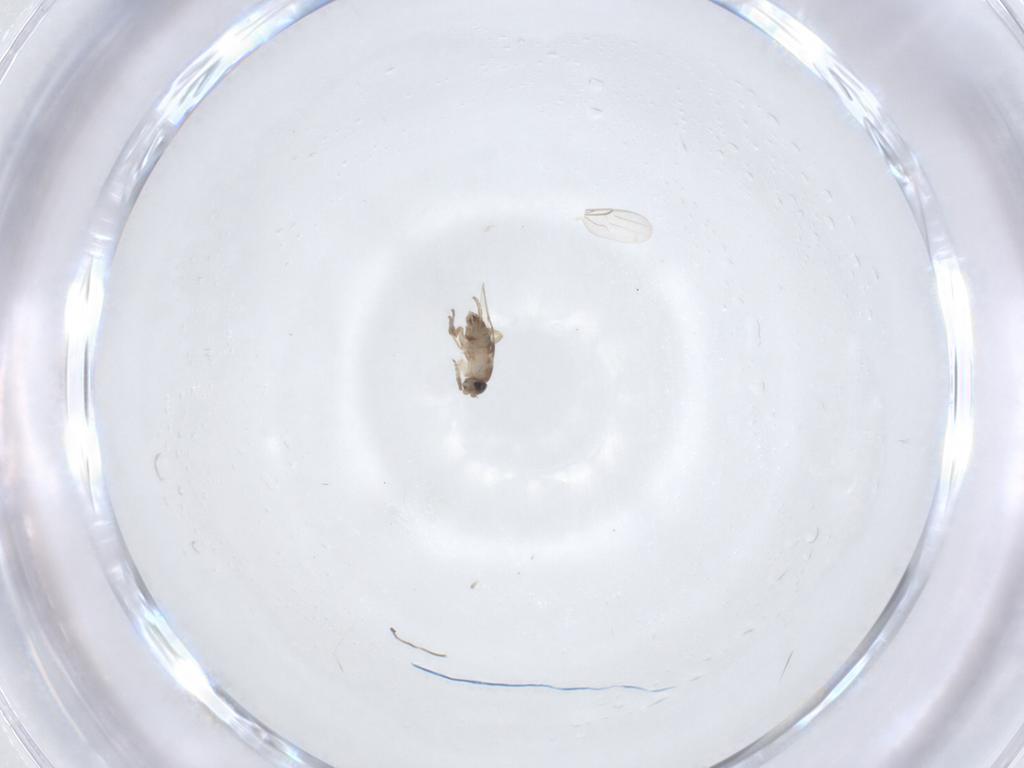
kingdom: Animalia
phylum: Arthropoda
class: Insecta
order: Diptera
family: Phoridae
